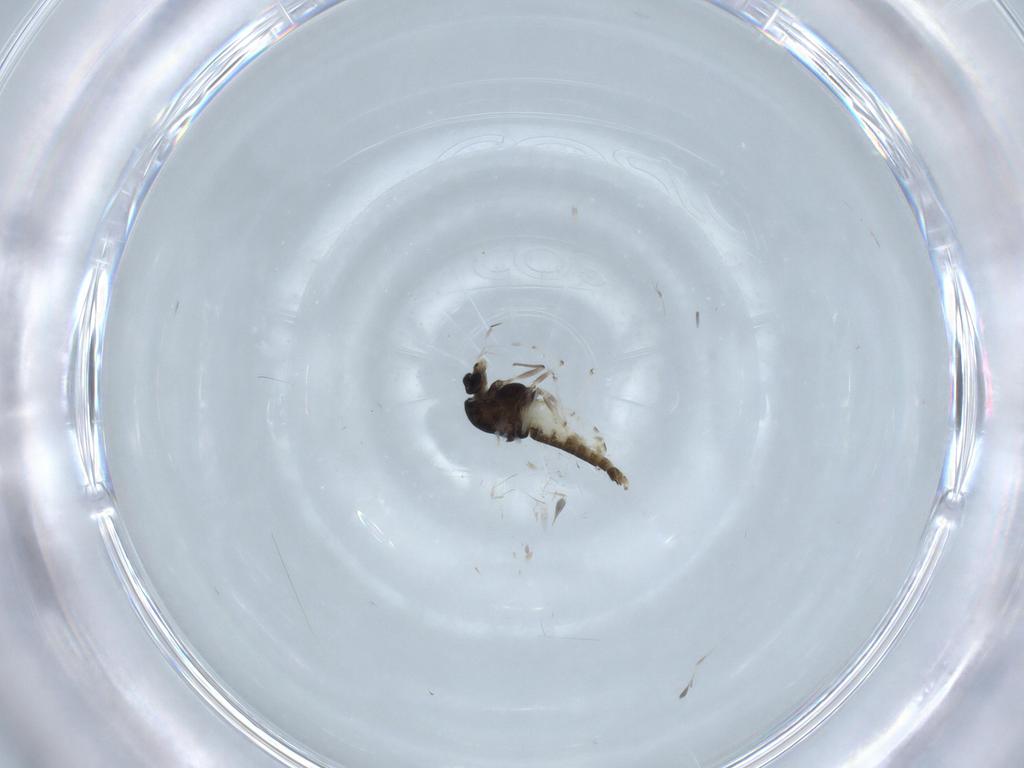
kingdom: Animalia
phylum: Arthropoda
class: Insecta
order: Diptera
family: Chironomidae
